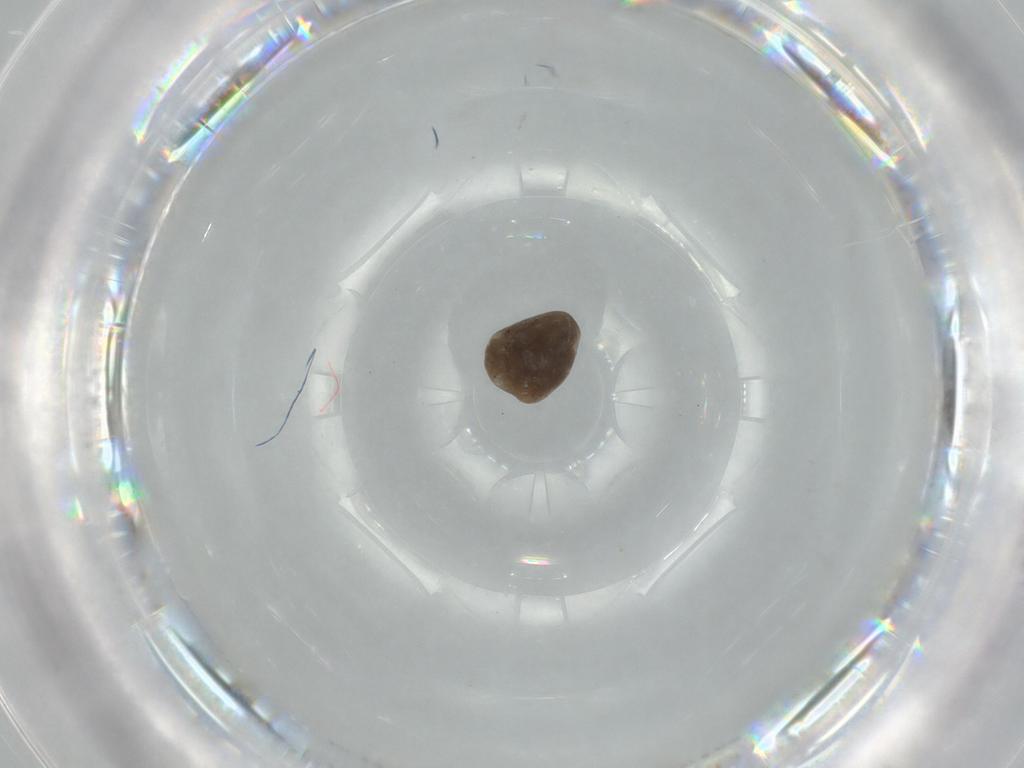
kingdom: Animalia
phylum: Arthropoda
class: Insecta
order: Diptera
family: Phoridae
